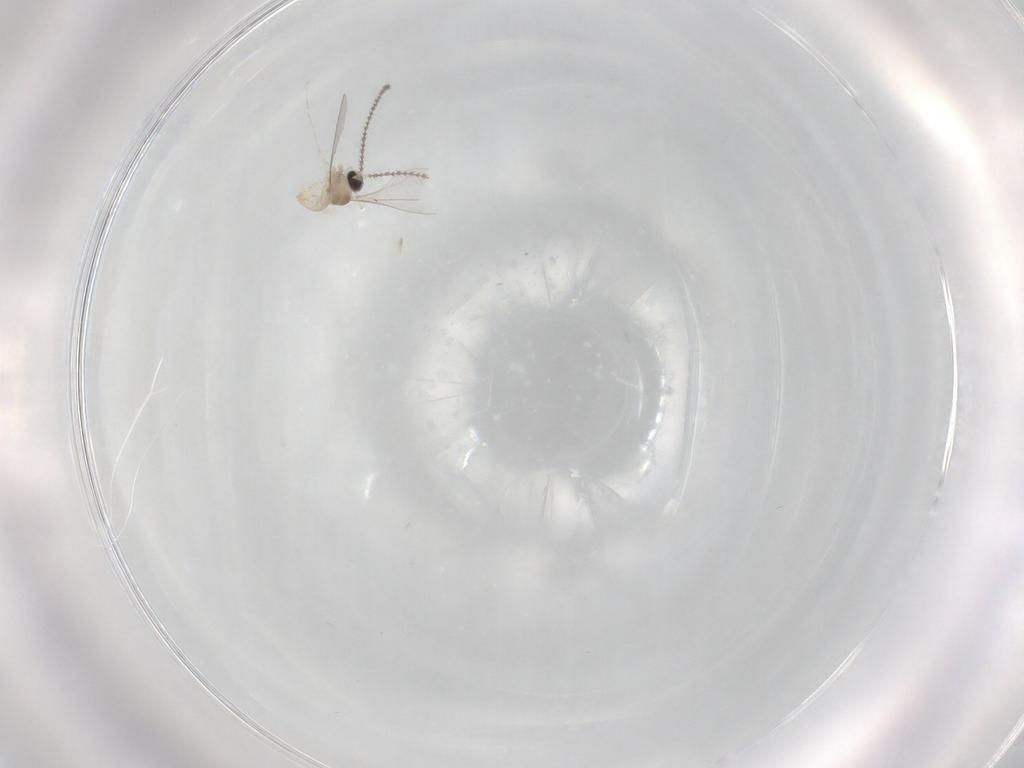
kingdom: Animalia
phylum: Arthropoda
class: Insecta
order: Diptera
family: Cecidomyiidae
